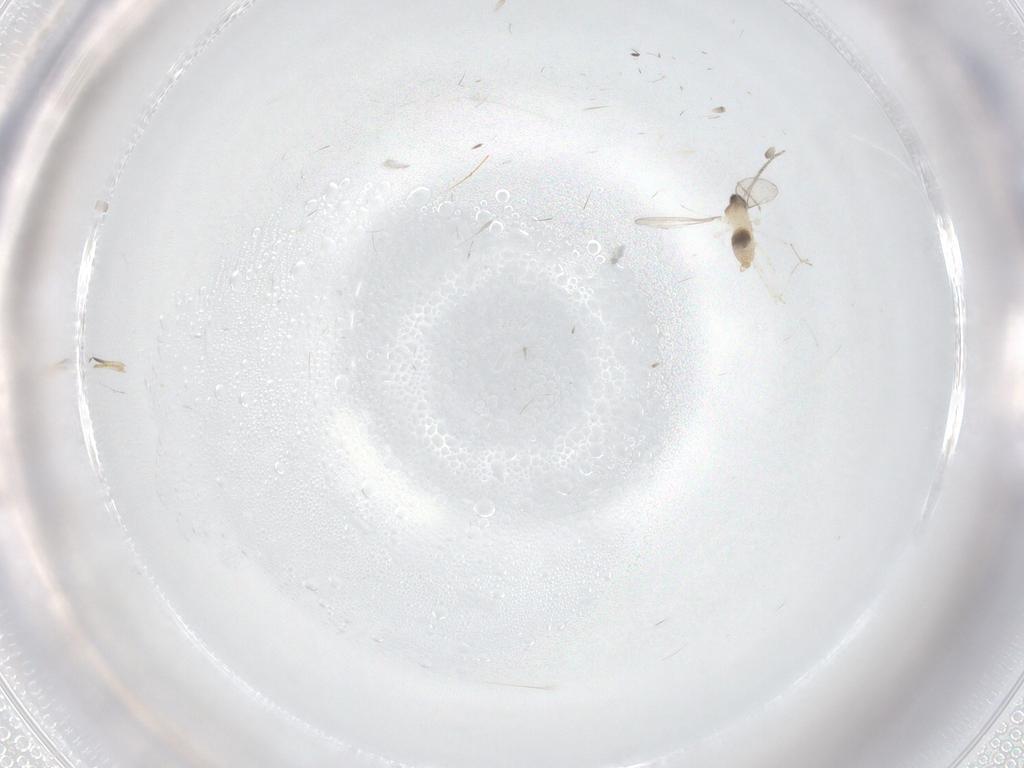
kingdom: Animalia
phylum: Arthropoda
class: Insecta
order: Diptera
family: Cecidomyiidae
